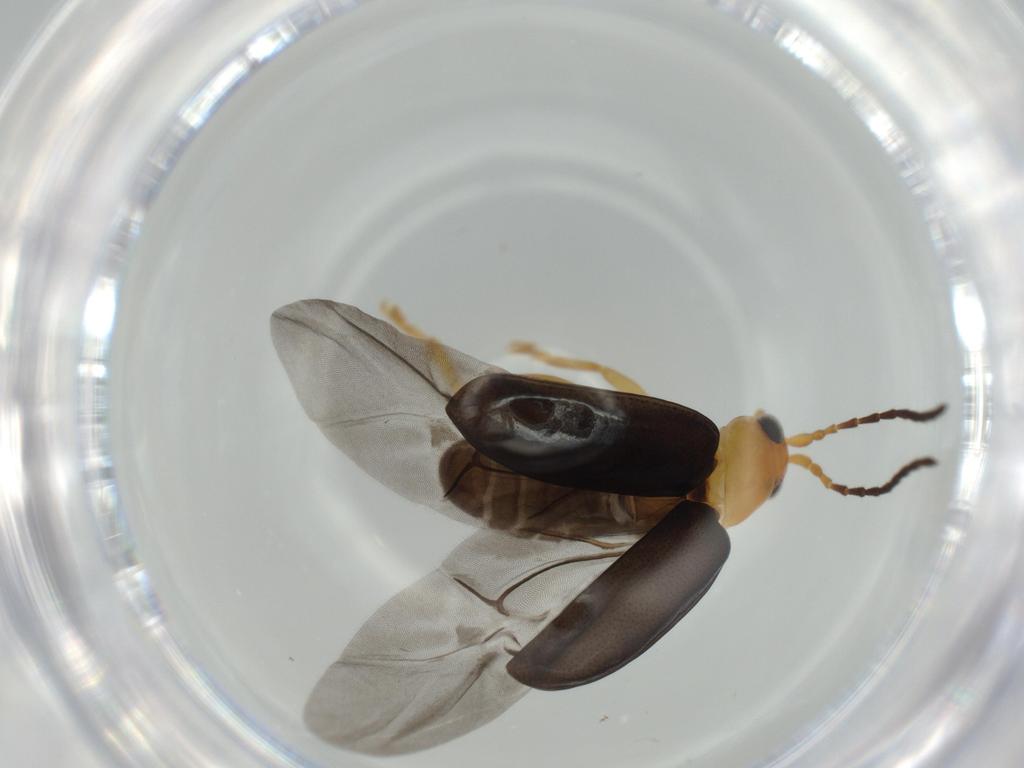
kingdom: Animalia
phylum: Arthropoda
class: Insecta
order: Coleoptera
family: Chrysomelidae
